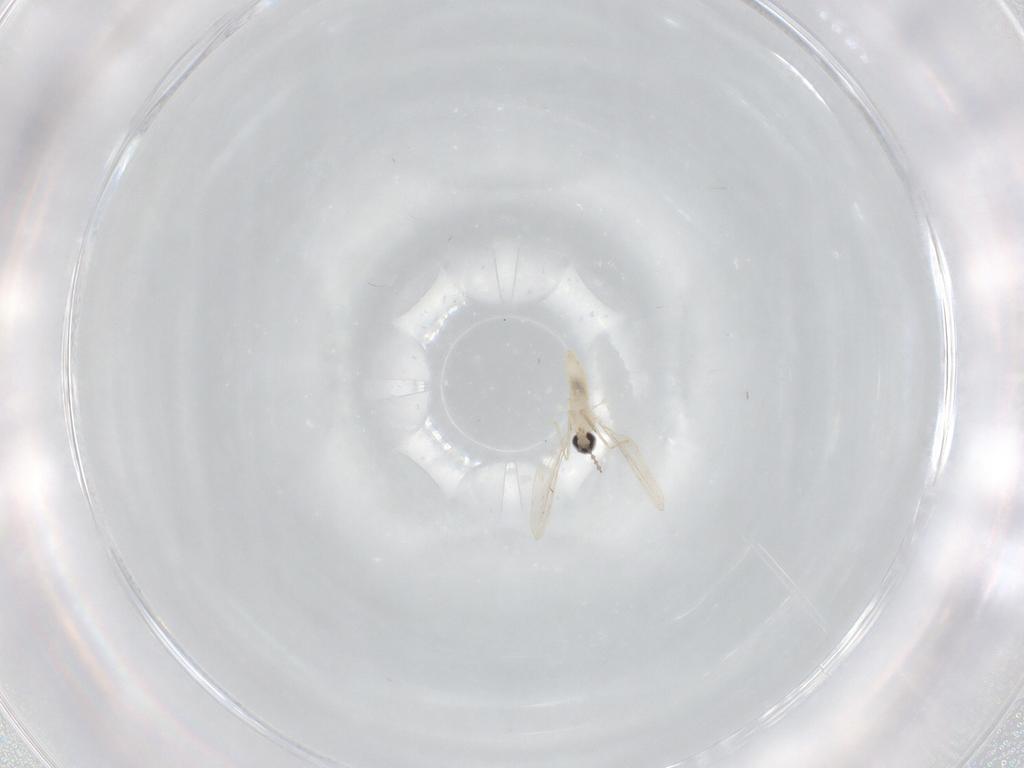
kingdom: Animalia
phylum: Arthropoda
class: Insecta
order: Diptera
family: Cecidomyiidae
